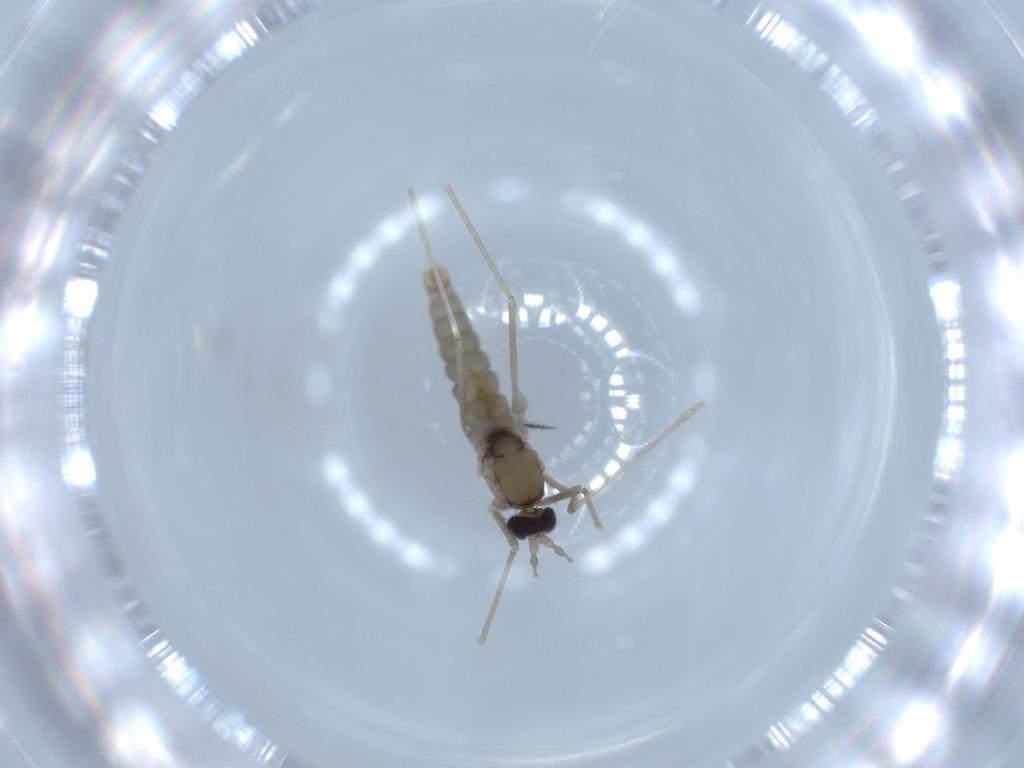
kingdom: Animalia
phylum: Arthropoda
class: Insecta
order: Diptera
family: Cecidomyiidae
